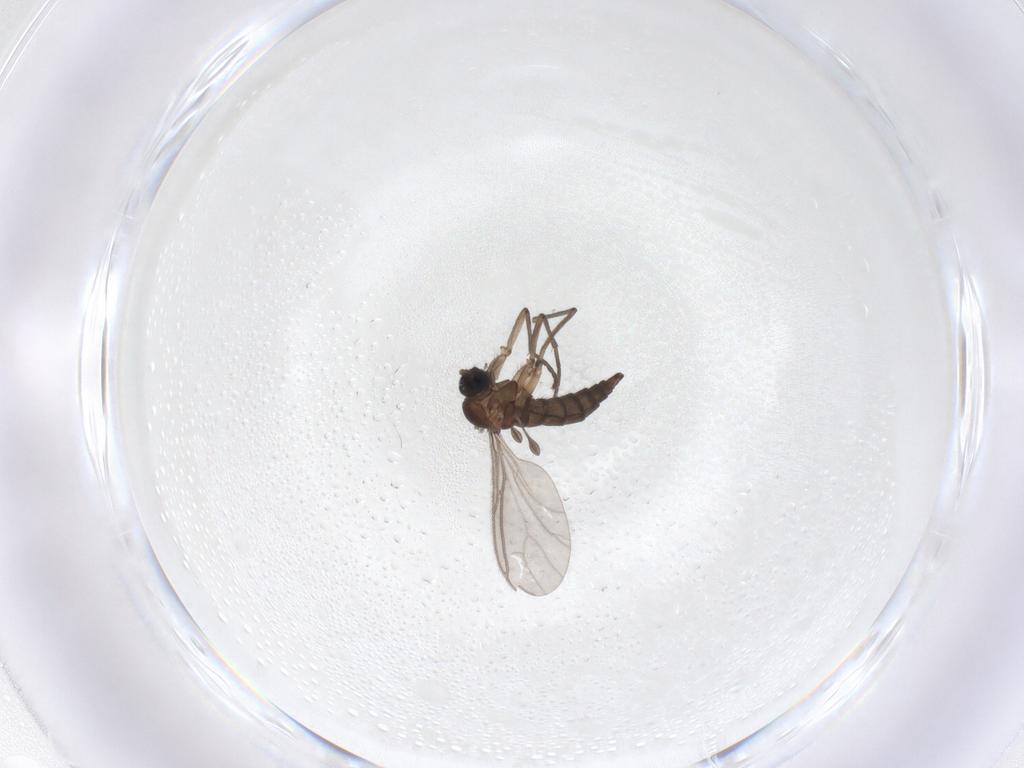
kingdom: Animalia
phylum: Arthropoda
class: Insecta
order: Diptera
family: Sciaridae
